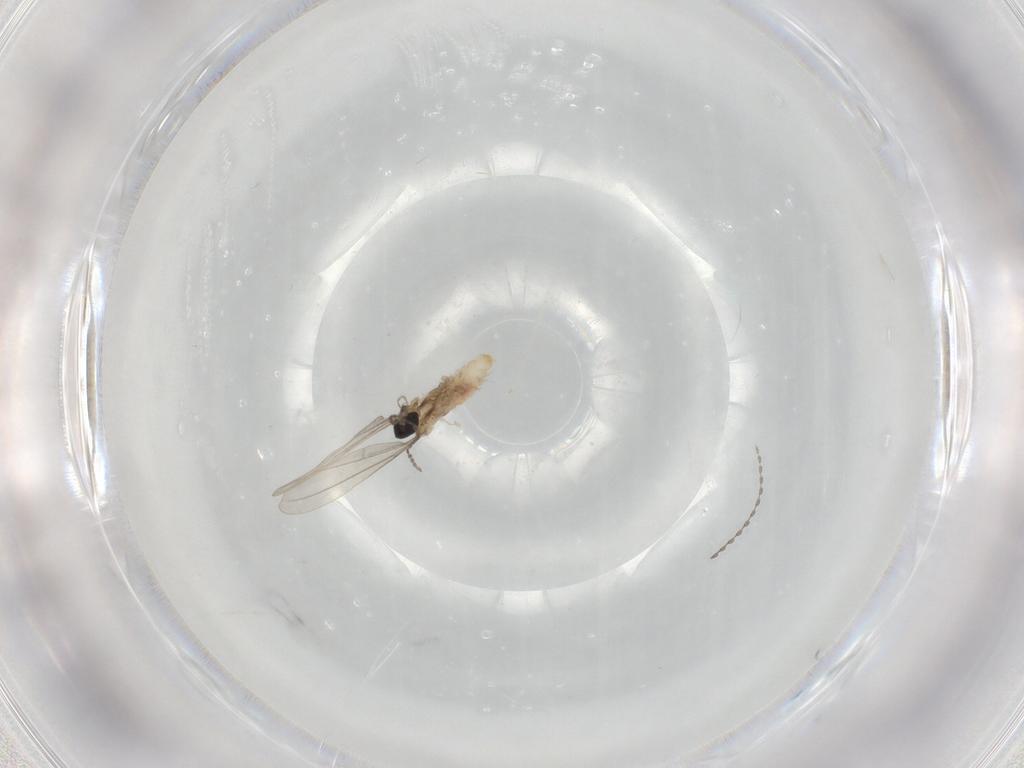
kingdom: Animalia
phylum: Arthropoda
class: Insecta
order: Diptera
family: Cecidomyiidae
